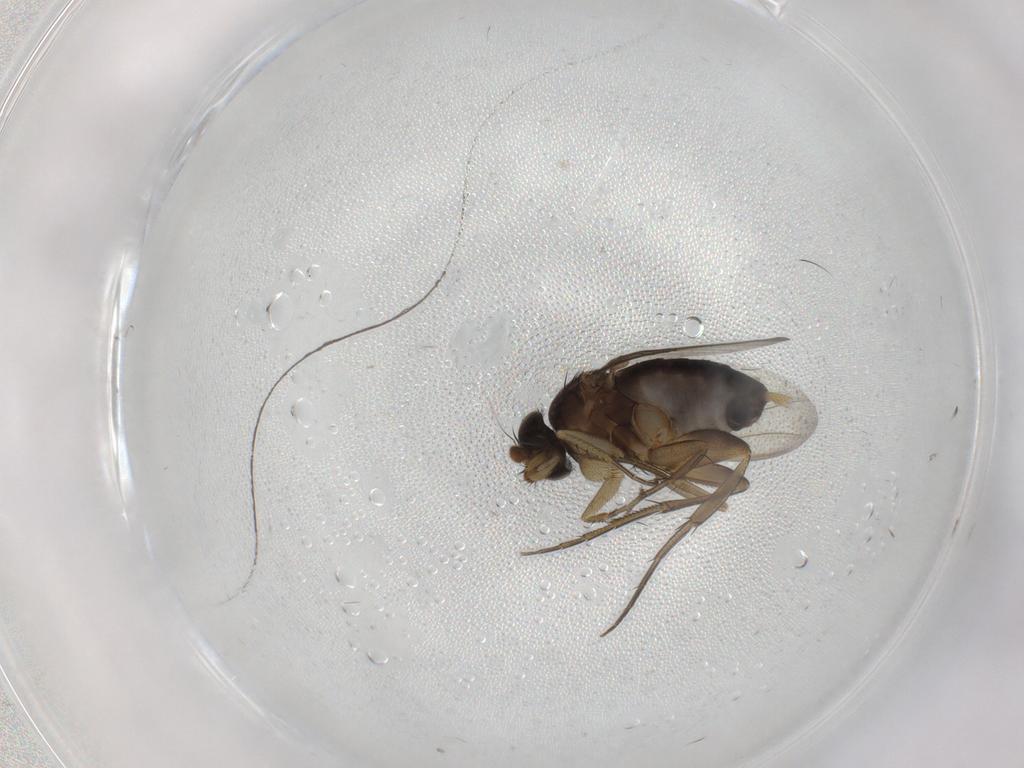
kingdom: Animalia
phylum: Arthropoda
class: Insecta
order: Diptera
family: Phoridae
